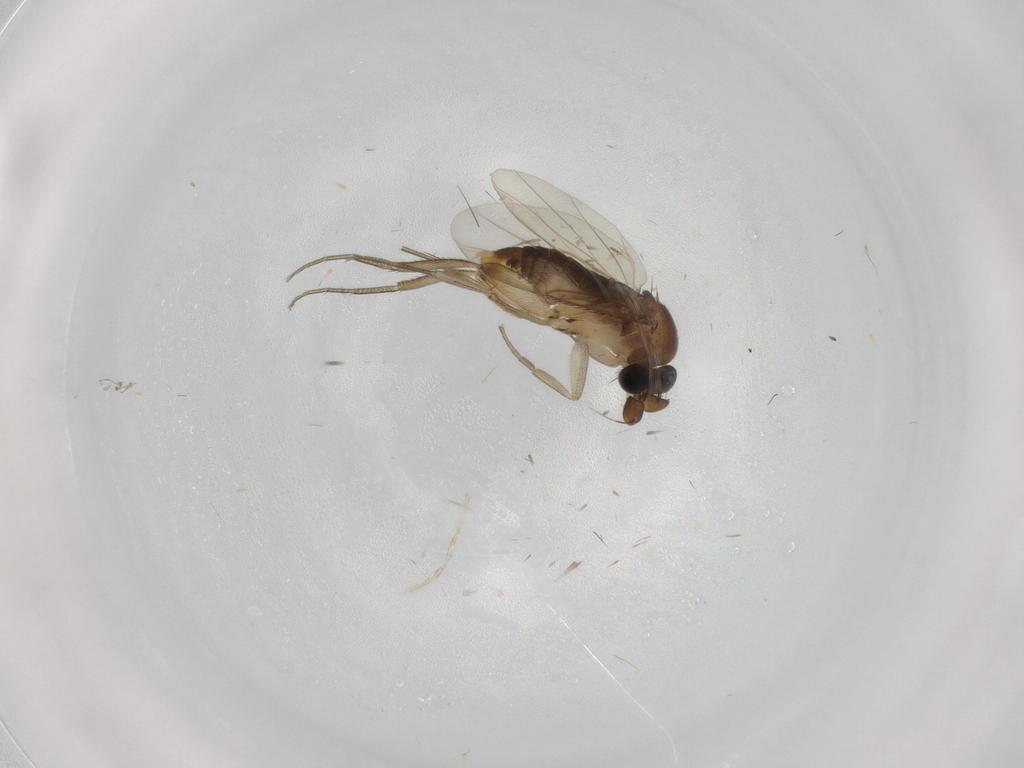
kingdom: Animalia
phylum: Arthropoda
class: Insecta
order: Diptera
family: Phoridae
